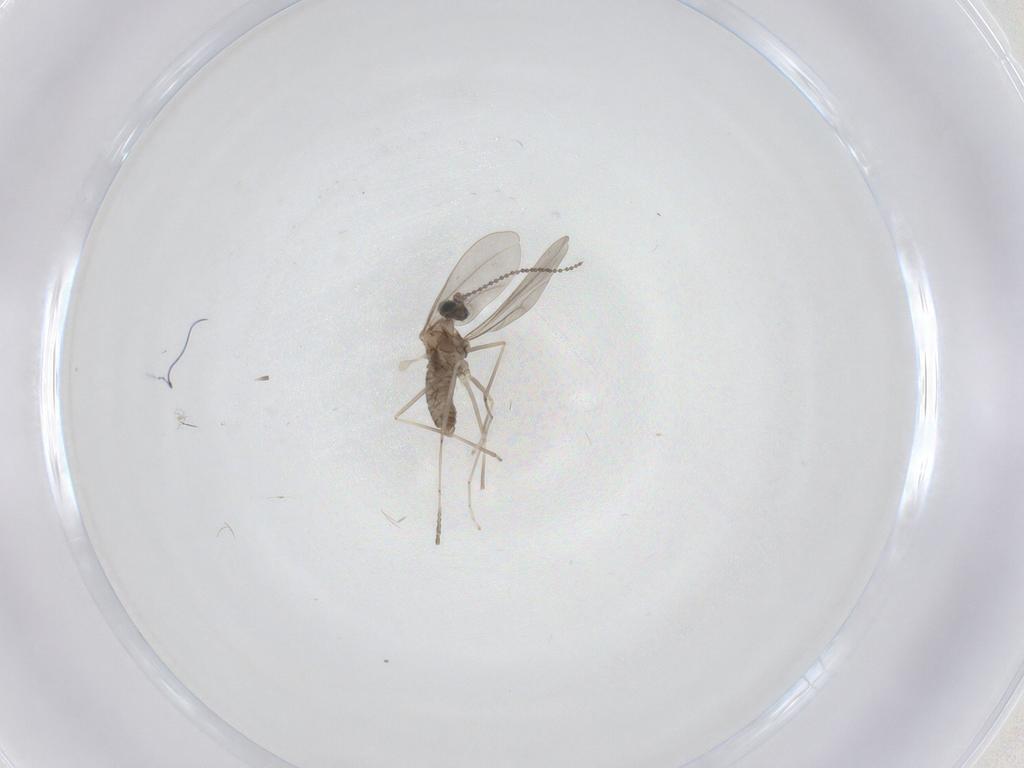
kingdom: Animalia
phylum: Arthropoda
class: Insecta
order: Diptera
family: Cecidomyiidae
